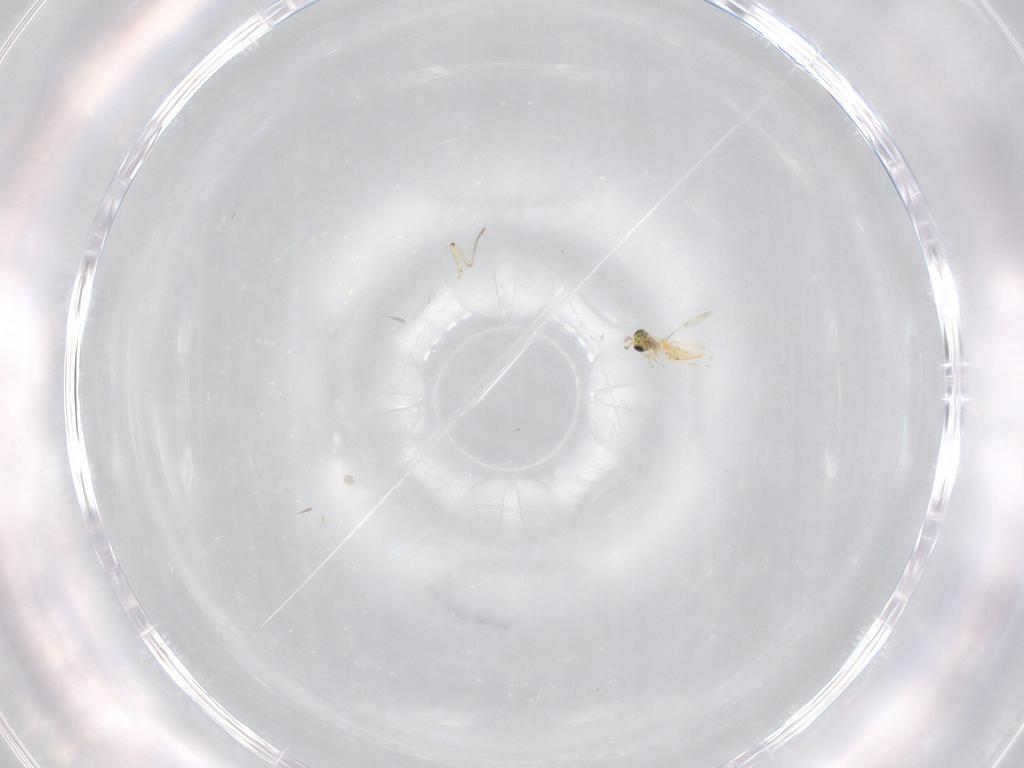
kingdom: Animalia
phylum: Arthropoda
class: Insecta
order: Hymenoptera
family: Trichogrammatidae
